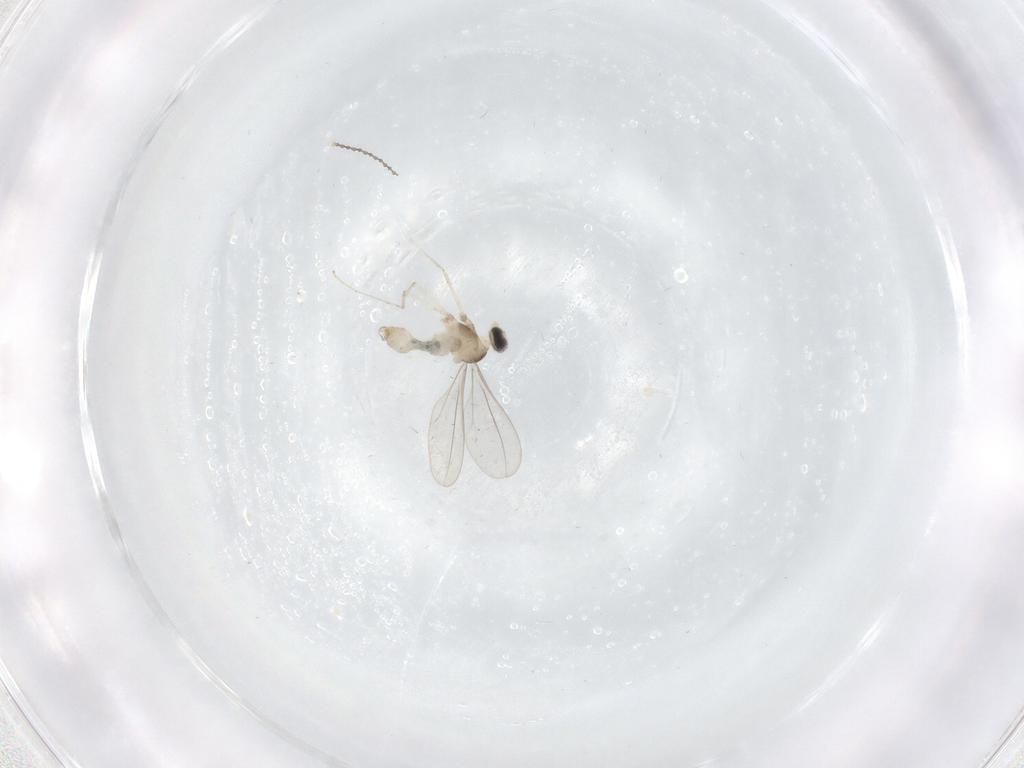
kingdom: Animalia
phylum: Arthropoda
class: Insecta
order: Diptera
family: Cecidomyiidae
